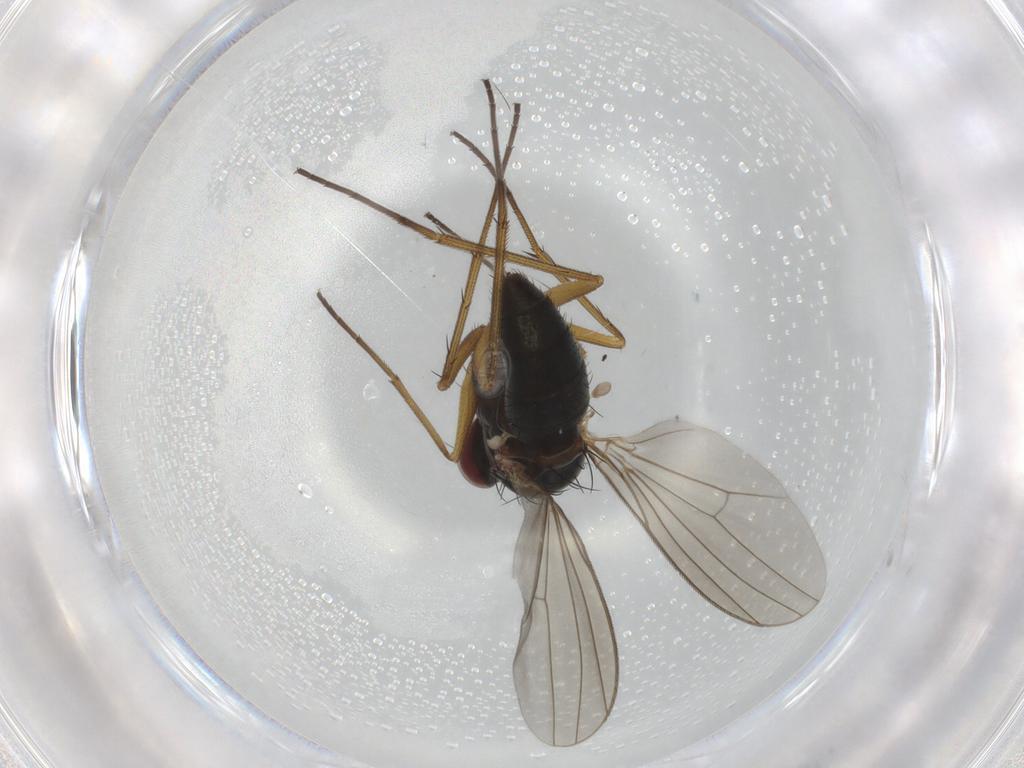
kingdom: Animalia
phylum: Arthropoda
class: Insecta
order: Diptera
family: Dolichopodidae
